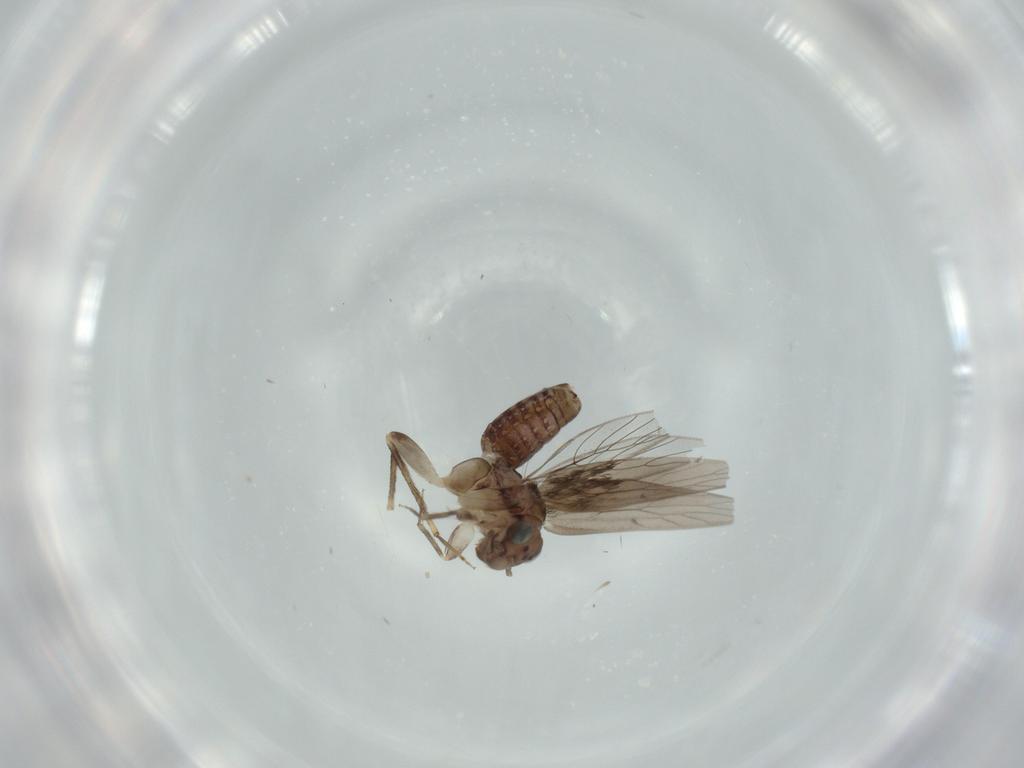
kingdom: Animalia
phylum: Arthropoda
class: Insecta
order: Psocodea
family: Lepidopsocidae
